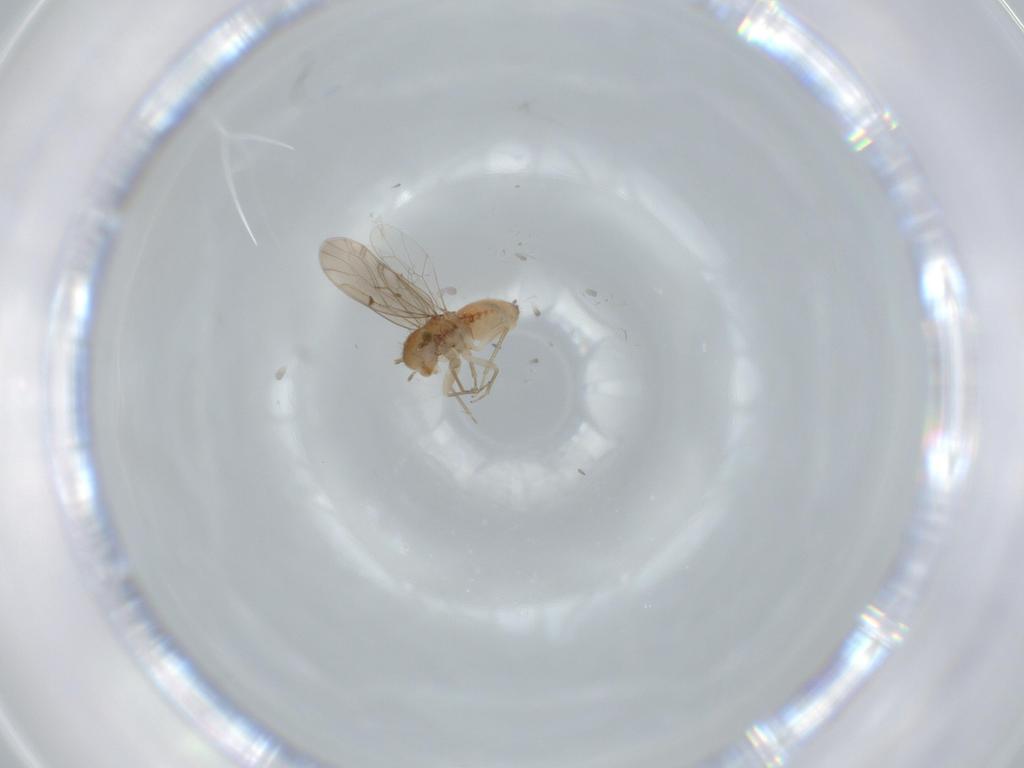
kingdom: Animalia
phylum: Arthropoda
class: Insecta
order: Psocodea
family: Ectopsocidae
